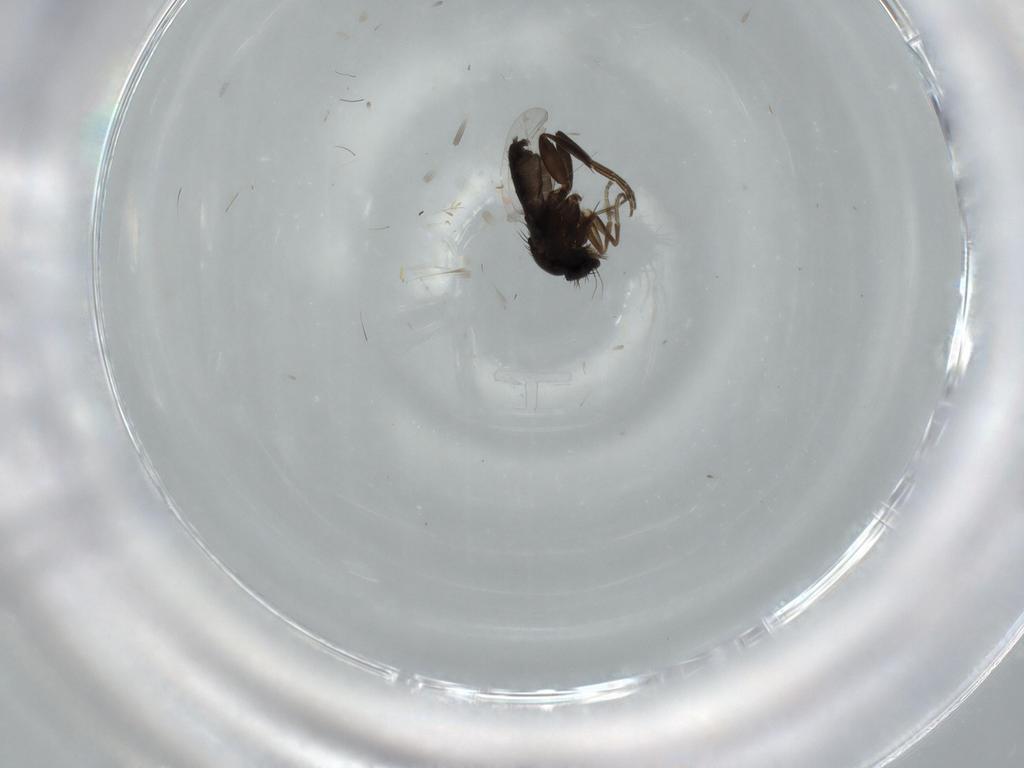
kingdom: Animalia
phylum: Arthropoda
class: Insecta
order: Diptera
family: Phoridae
